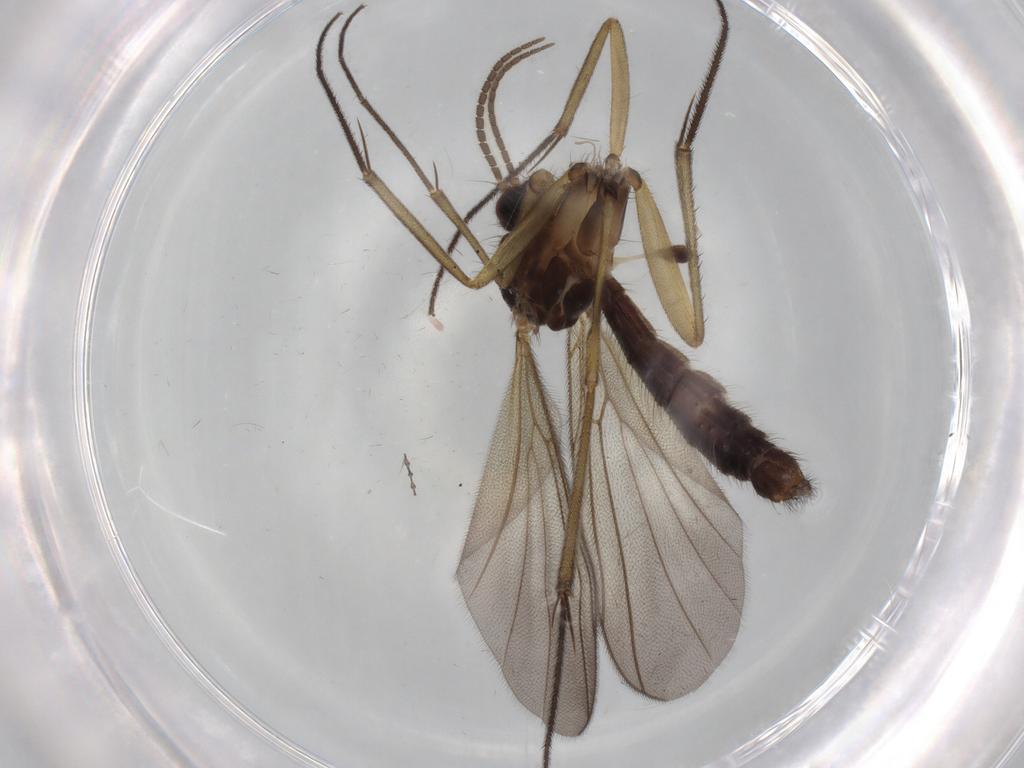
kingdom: Animalia
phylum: Arthropoda
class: Insecta
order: Diptera
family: Mycetophilidae
